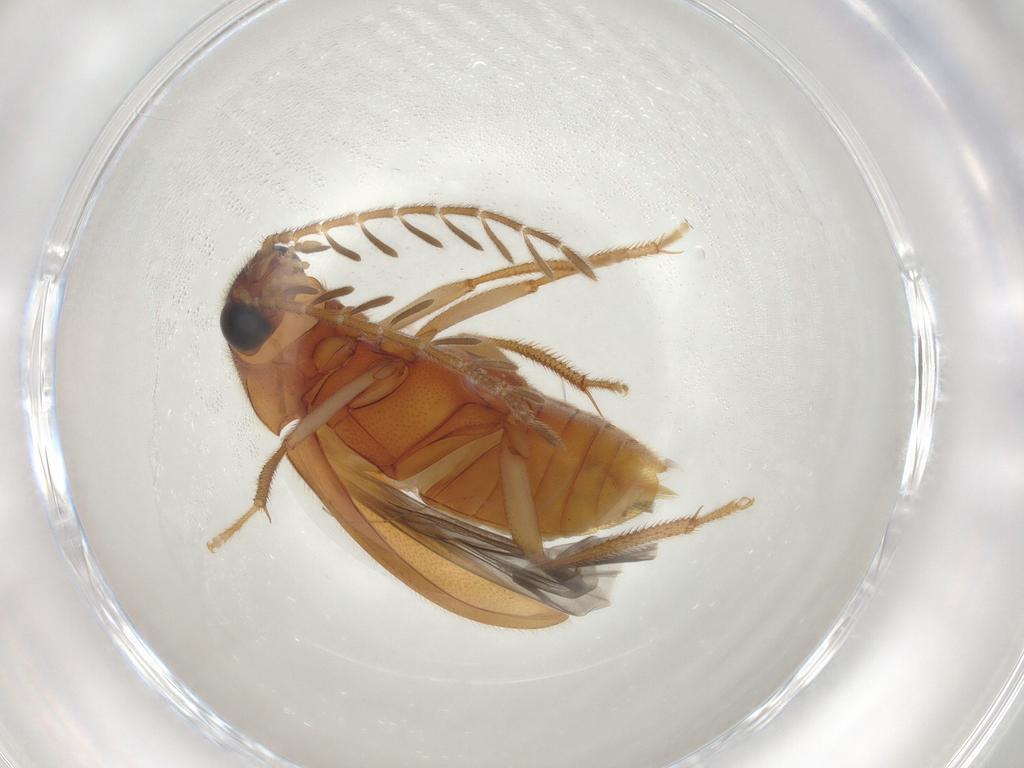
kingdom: Animalia
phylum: Arthropoda
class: Insecta
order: Coleoptera
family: Ptilodactylidae
